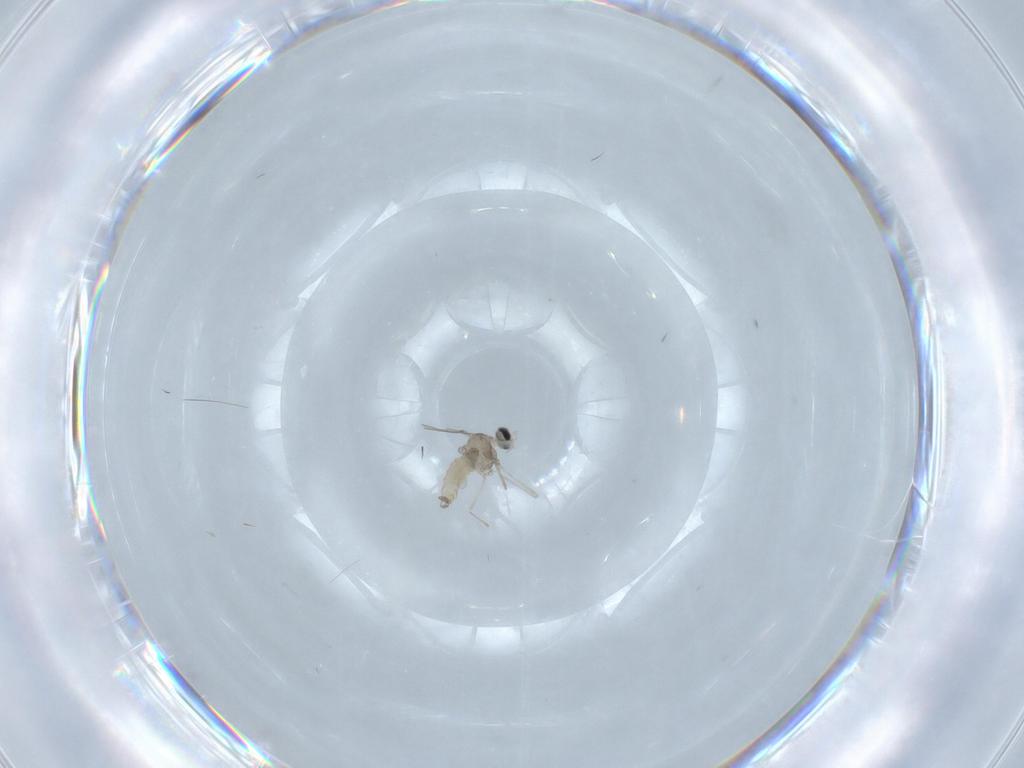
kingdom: Animalia
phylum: Arthropoda
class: Insecta
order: Diptera
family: Cecidomyiidae
